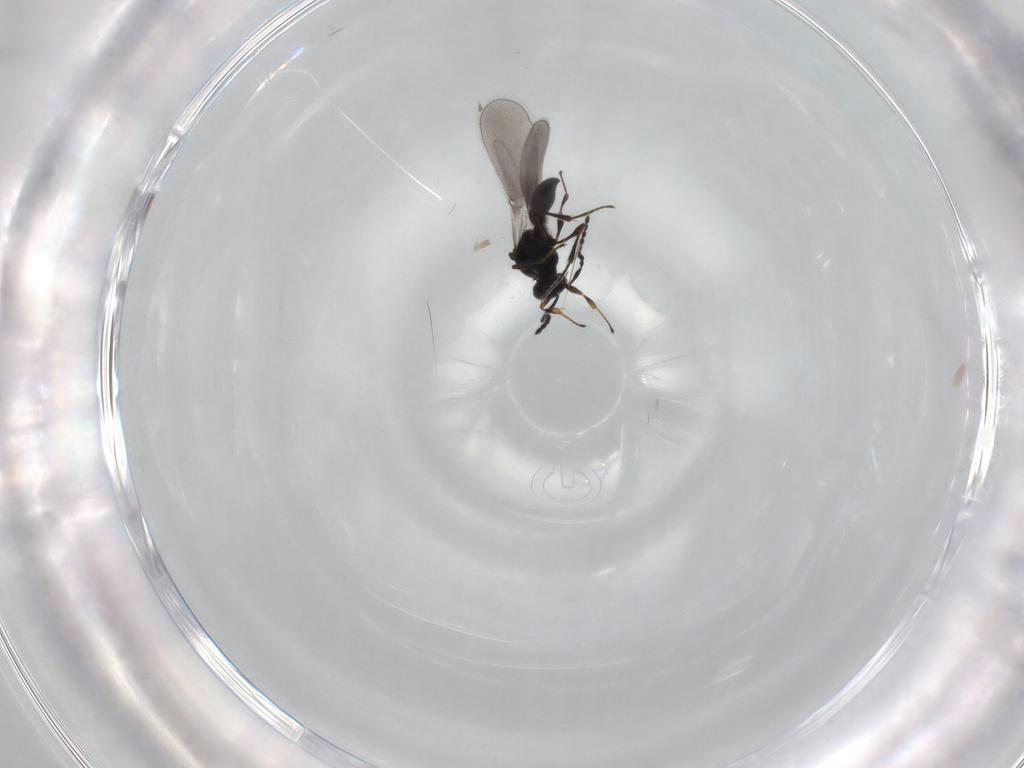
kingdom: Animalia
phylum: Arthropoda
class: Insecta
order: Hymenoptera
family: Platygastridae
